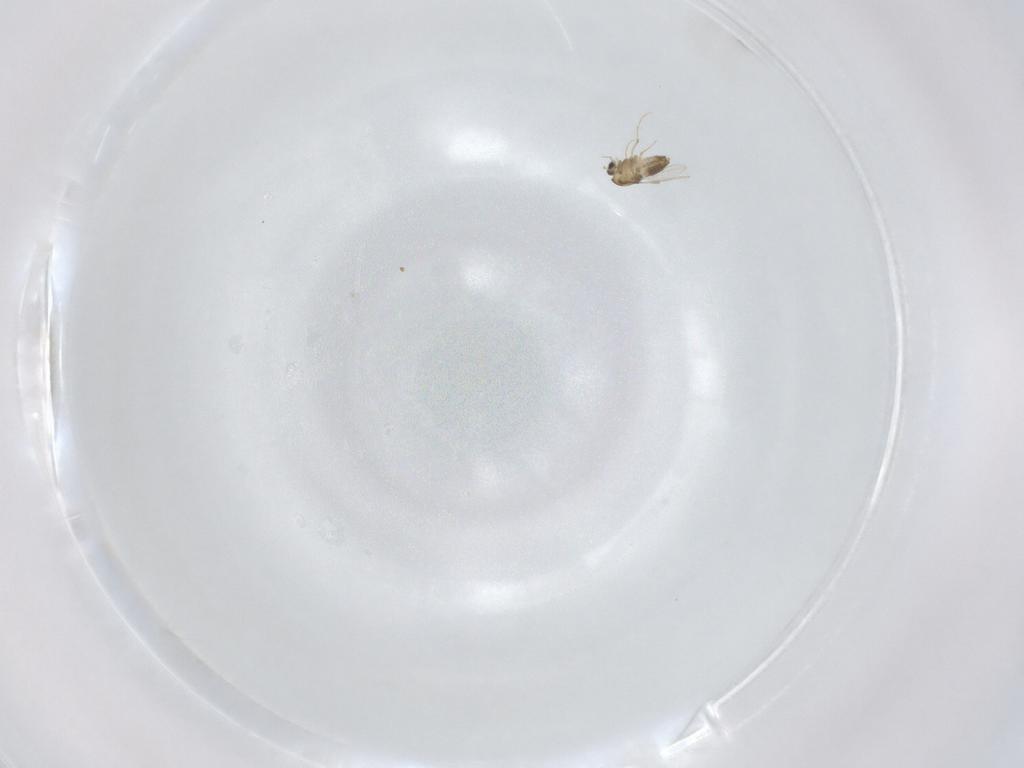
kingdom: Animalia
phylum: Arthropoda
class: Insecta
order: Diptera
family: Chironomidae
